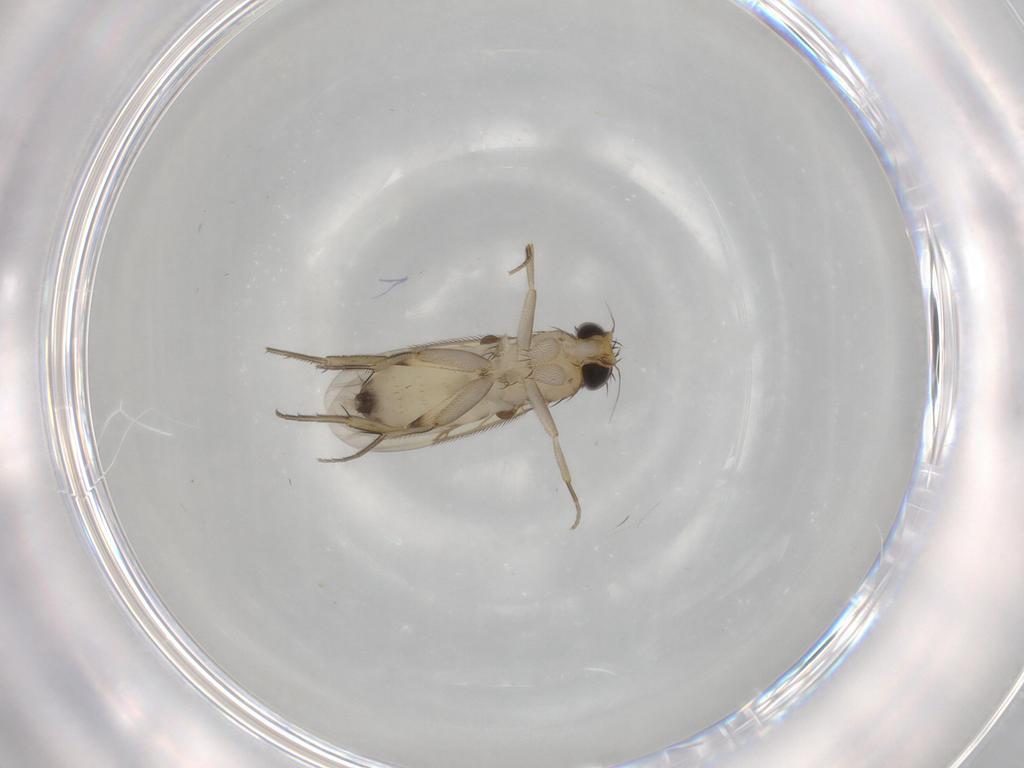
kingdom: Animalia
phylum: Arthropoda
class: Insecta
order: Diptera
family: Phoridae
